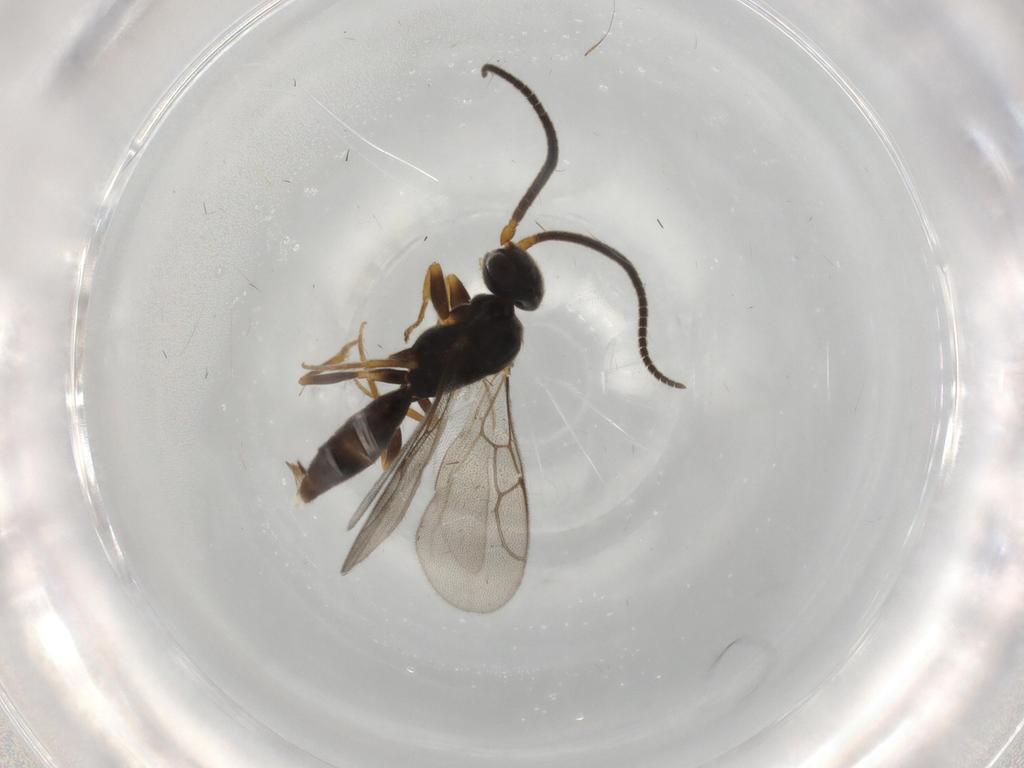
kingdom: Animalia
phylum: Arthropoda
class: Insecta
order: Hymenoptera
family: Sclerogibbidae
